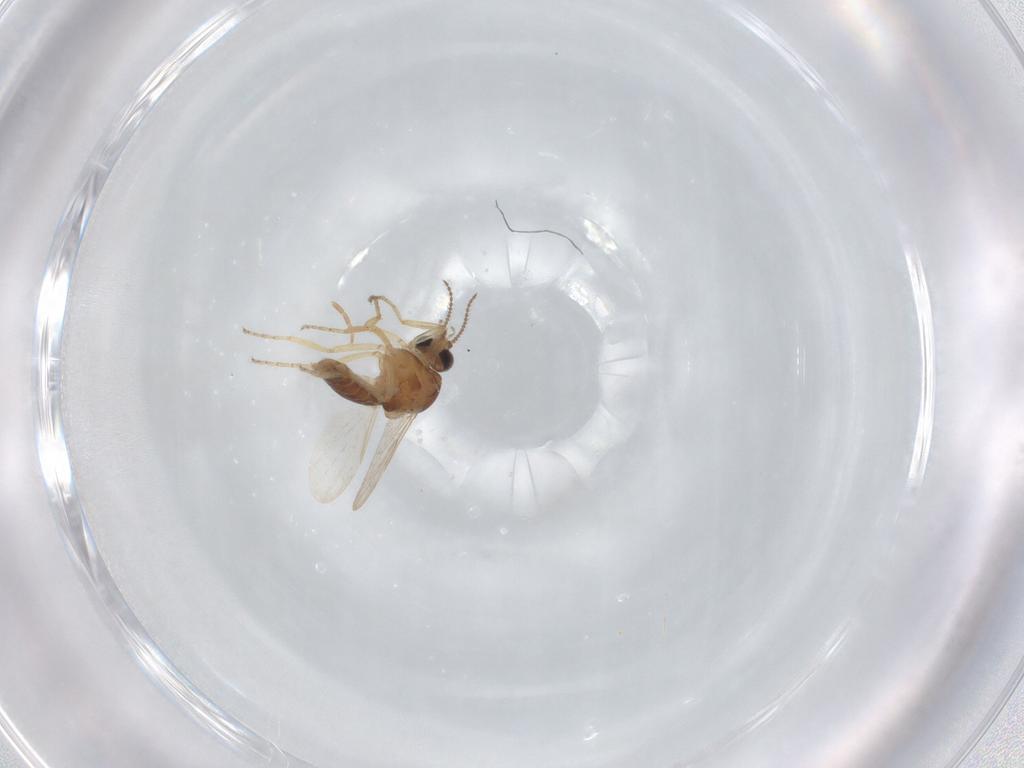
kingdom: Animalia
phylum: Arthropoda
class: Insecta
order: Diptera
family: Ceratopogonidae
